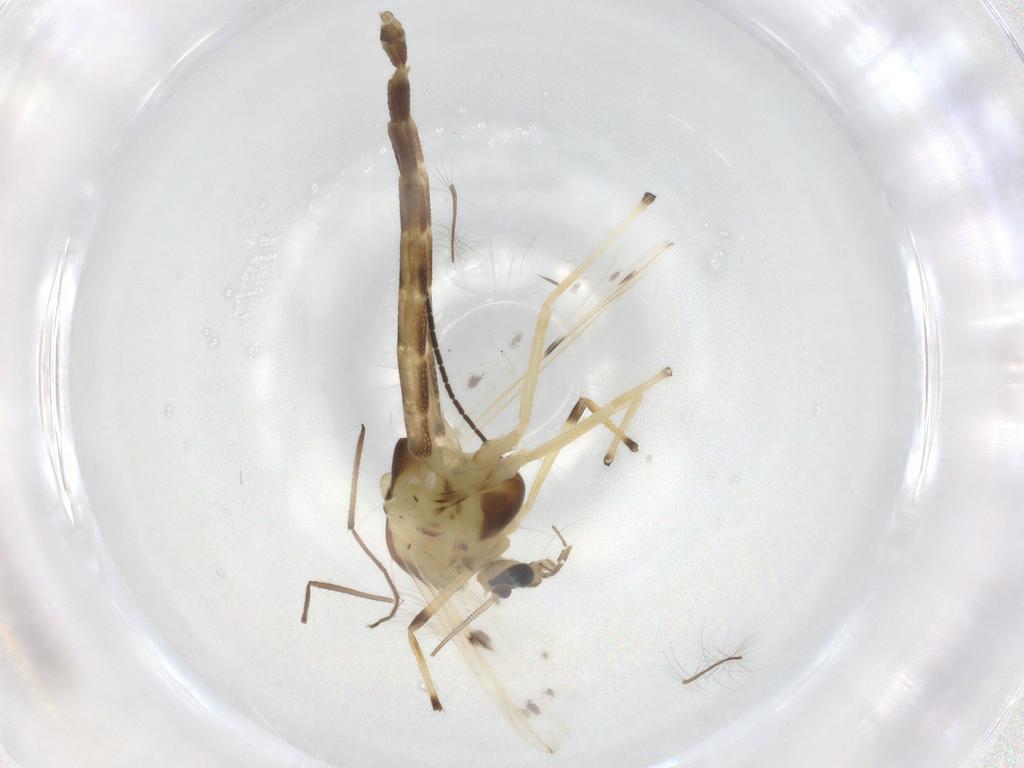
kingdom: Animalia
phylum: Arthropoda
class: Insecta
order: Diptera
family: Chironomidae
